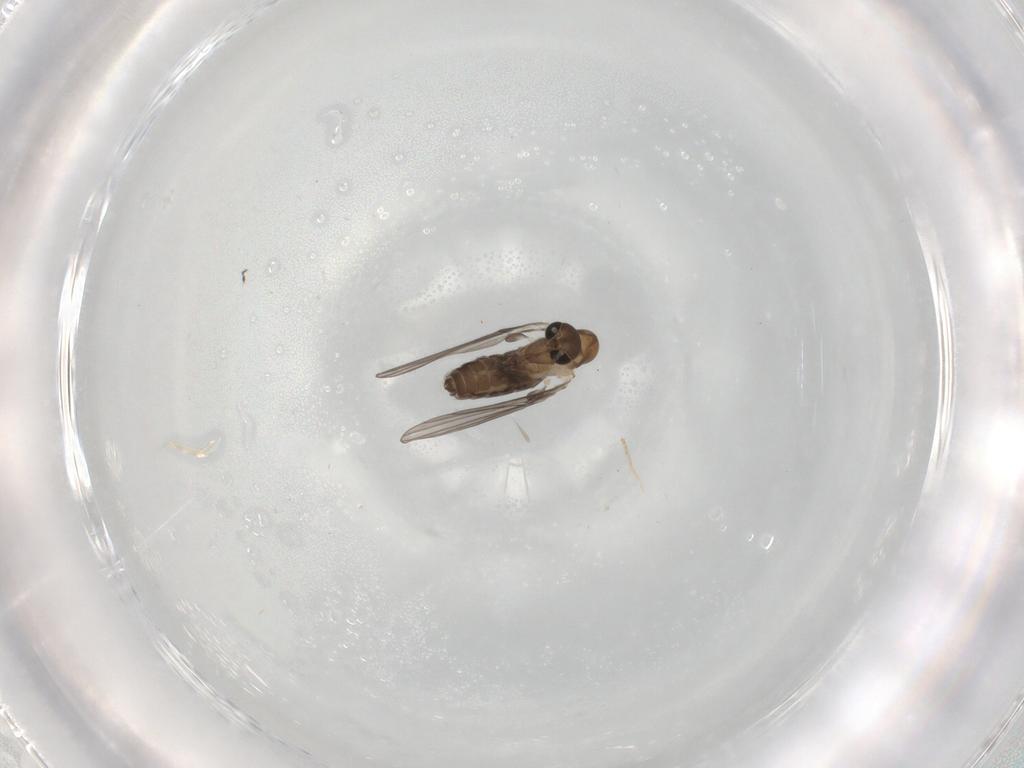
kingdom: Animalia
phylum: Arthropoda
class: Insecta
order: Diptera
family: Psychodidae
